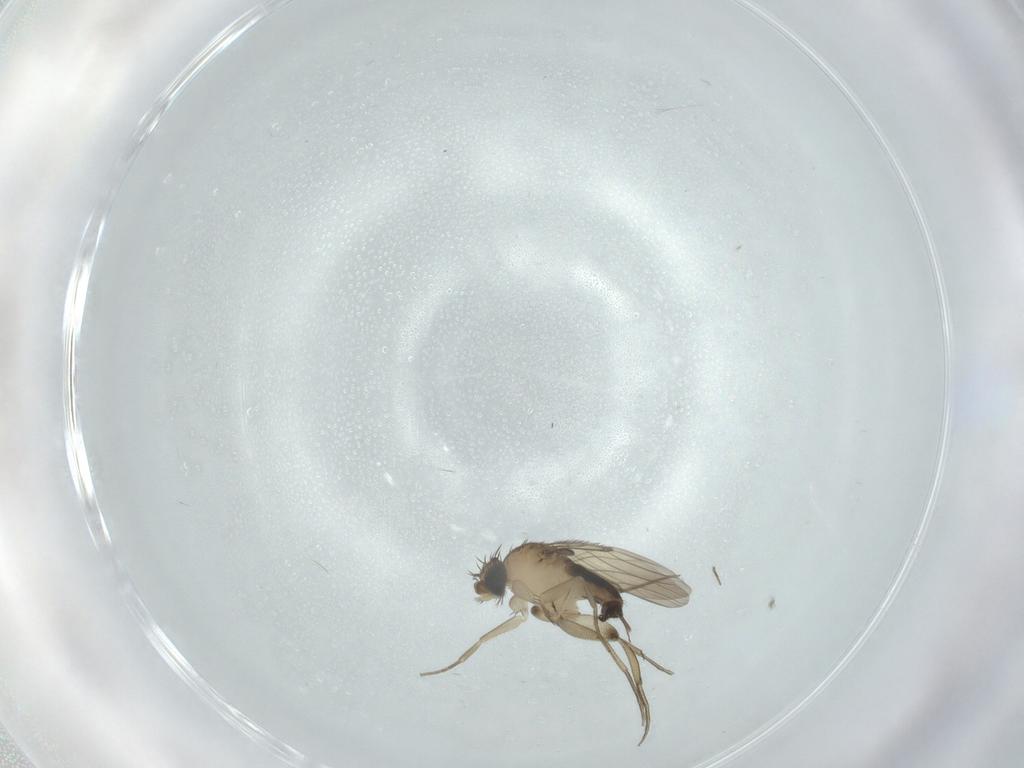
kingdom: Animalia
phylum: Arthropoda
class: Insecta
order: Diptera
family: Phoridae
